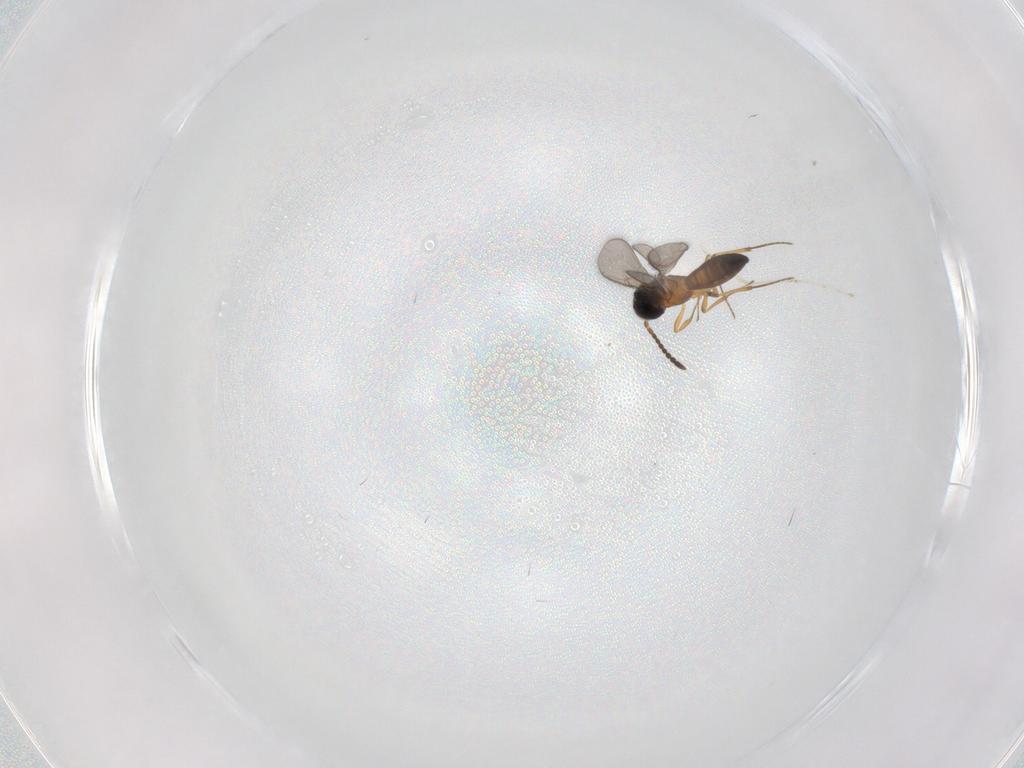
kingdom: Animalia
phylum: Arthropoda
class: Insecta
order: Hymenoptera
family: Scelionidae
